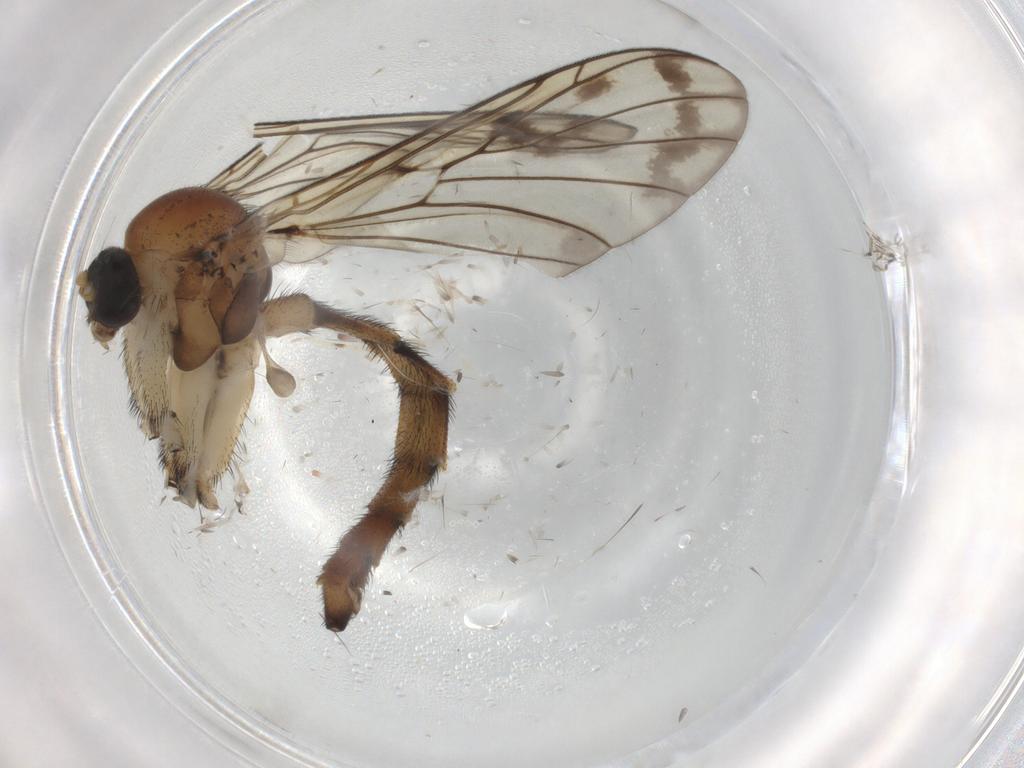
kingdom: Animalia
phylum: Arthropoda
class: Insecta
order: Diptera
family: Cecidomyiidae
